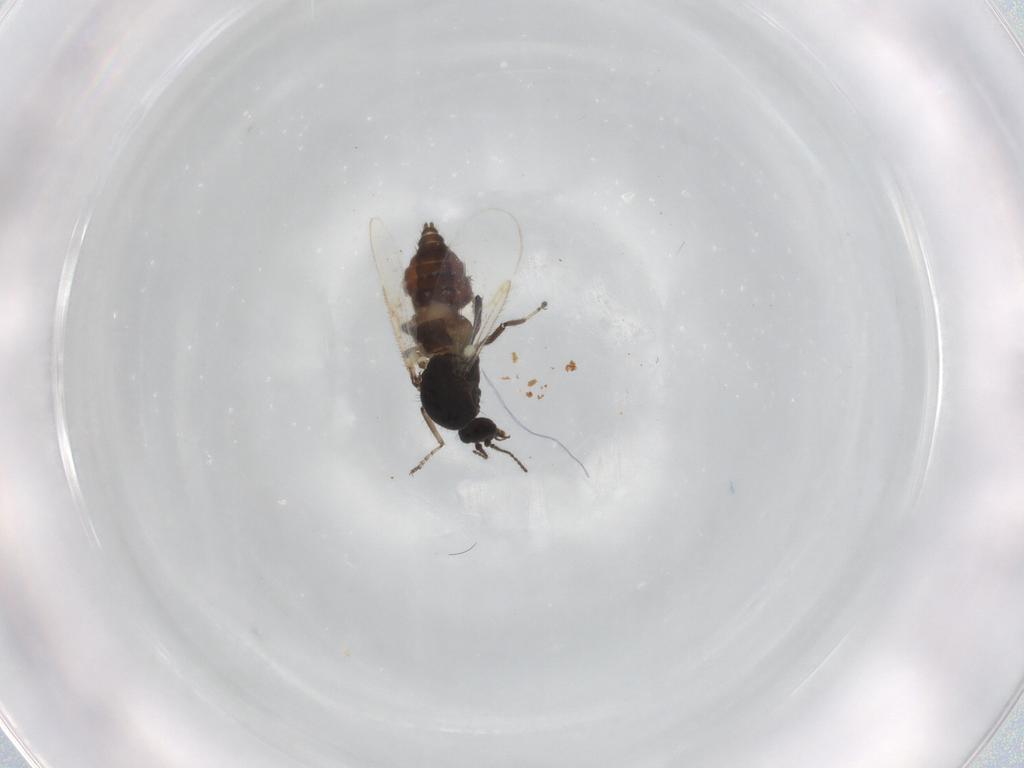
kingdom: Animalia
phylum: Arthropoda
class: Insecta
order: Diptera
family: Ceratopogonidae
